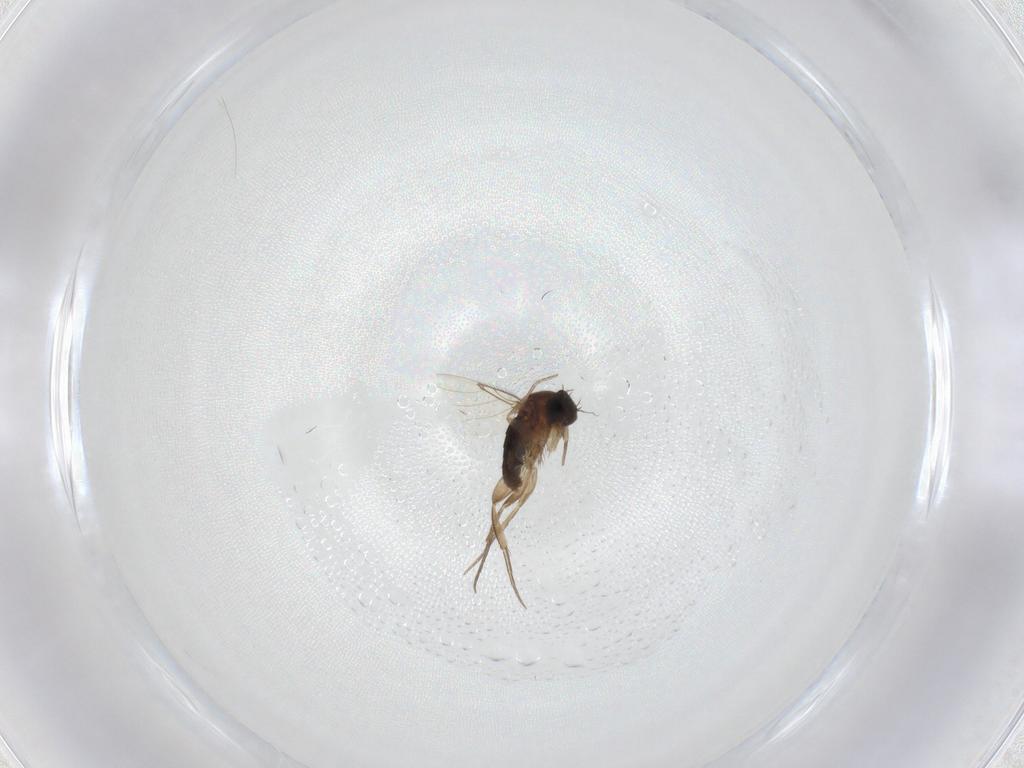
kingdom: Animalia
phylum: Arthropoda
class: Insecta
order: Diptera
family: Phoridae
